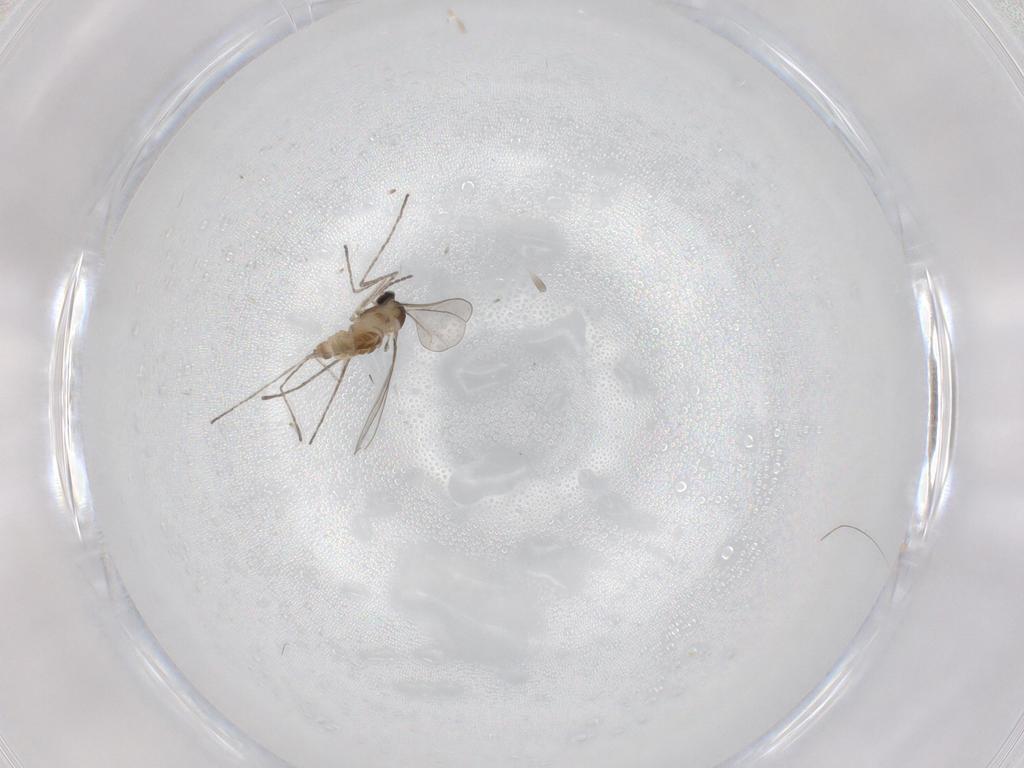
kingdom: Animalia
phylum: Arthropoda
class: Insecta
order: Diptera
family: Cecidomyiidae
